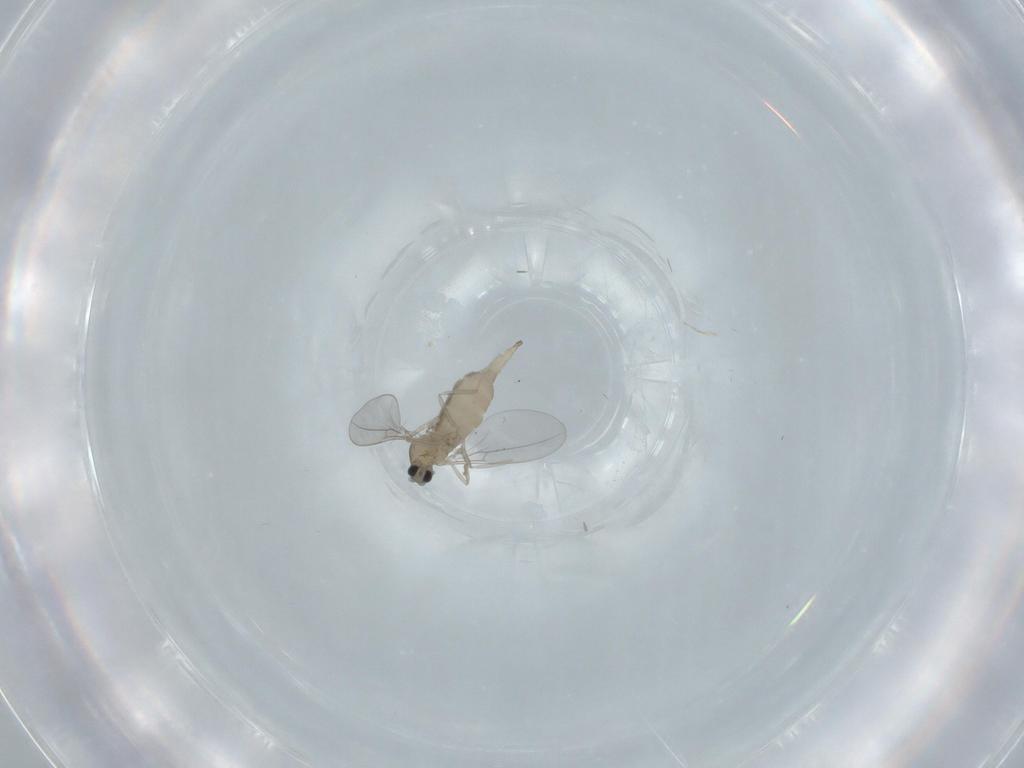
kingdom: Animalia
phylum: Arthropoda
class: Insecta
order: Diptera
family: Cecidomyiidae
